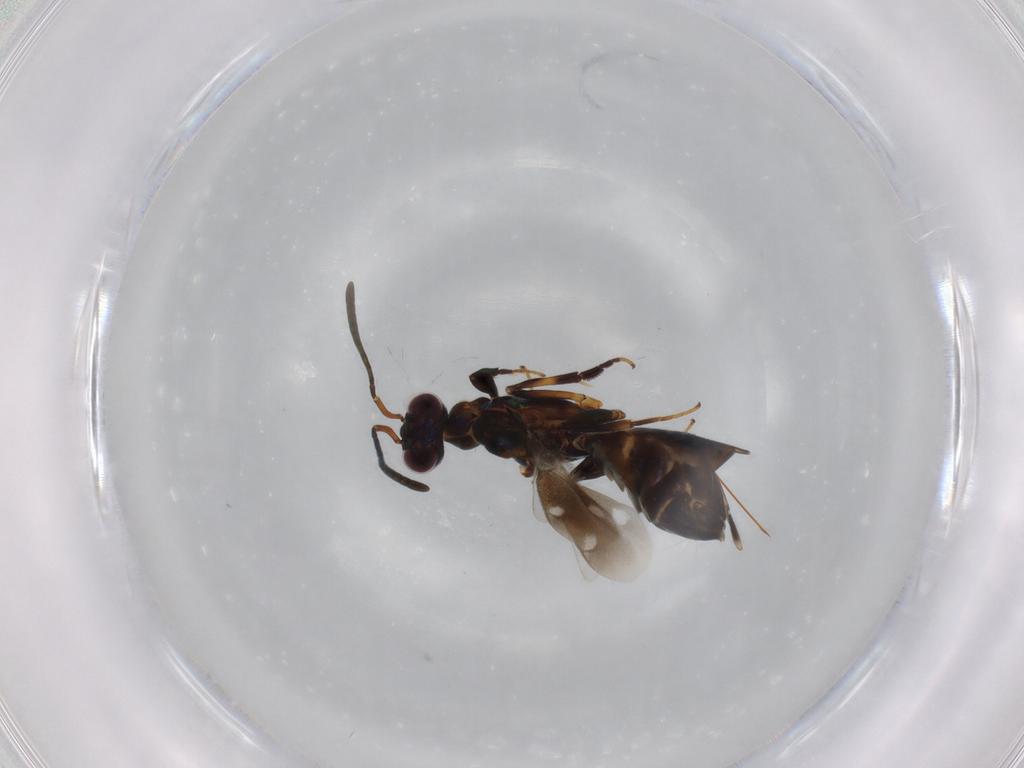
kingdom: Animalia
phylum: Arthropoda
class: Insecta
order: Hymenoptera
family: Eupelmidae
